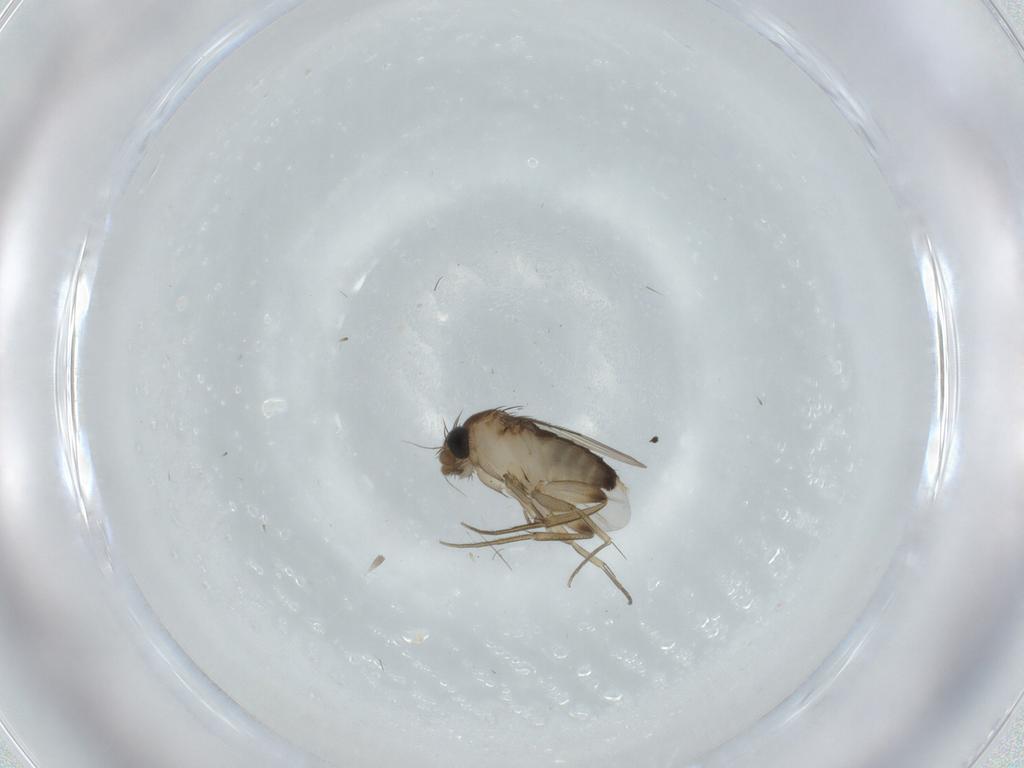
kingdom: Animalia
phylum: Arthropoda
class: Insecta
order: Diptera
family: Phoridae
